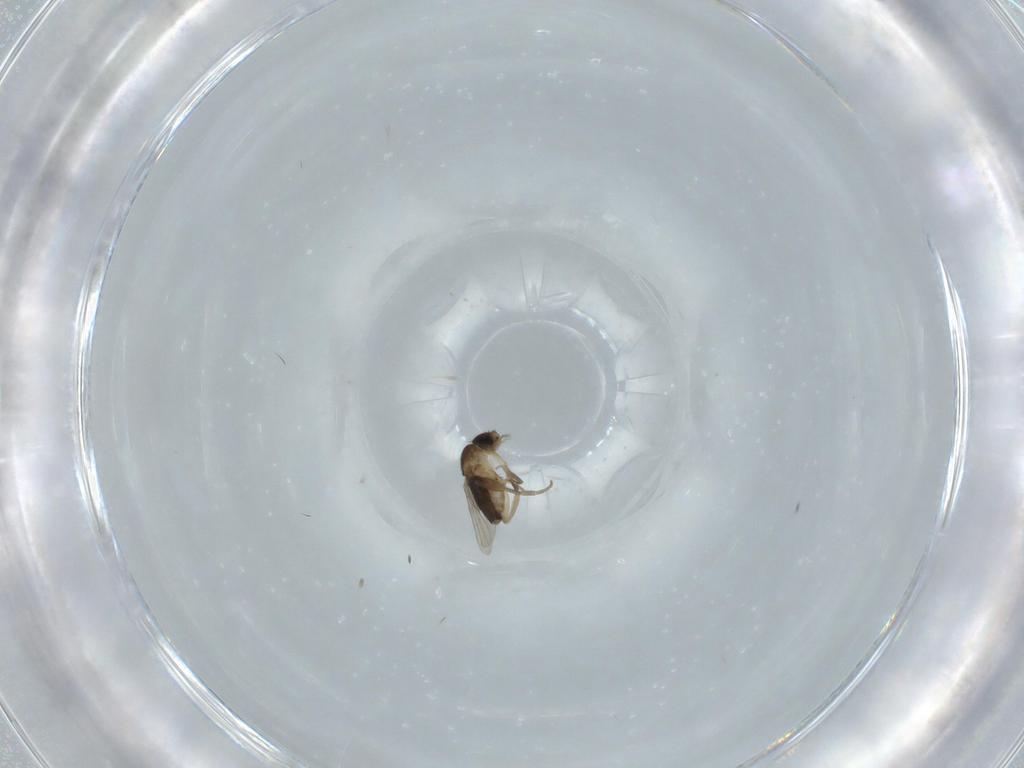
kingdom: Animalia
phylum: Arthropoda
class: Insecta
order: Diptera
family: Phoridae
